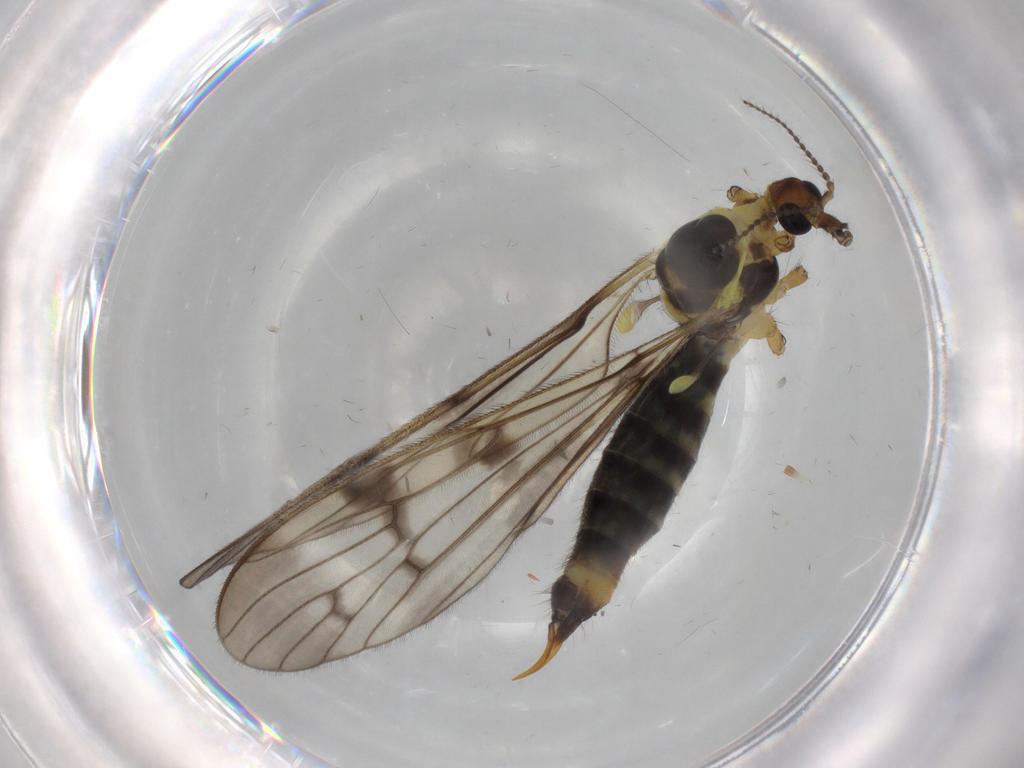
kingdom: Animalia
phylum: Arthropoda
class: Insecta
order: Diptera
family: Limoniidae
